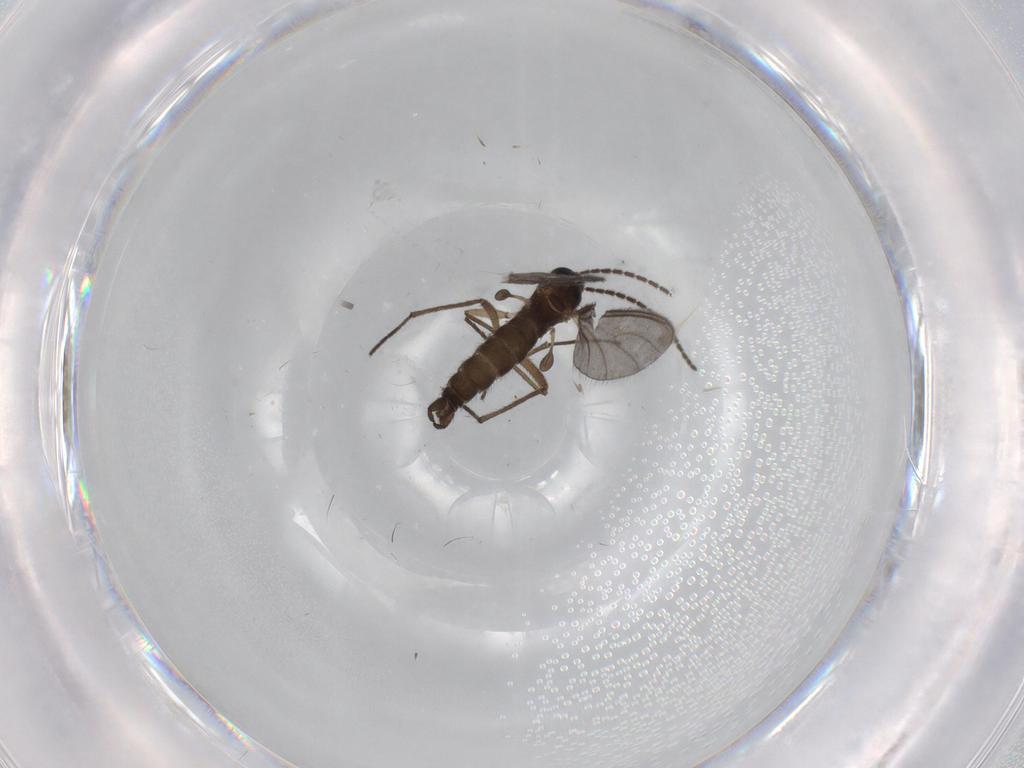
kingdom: Animalia
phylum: Arthropoda
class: Insecta
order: Diptera
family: Sciaridae
